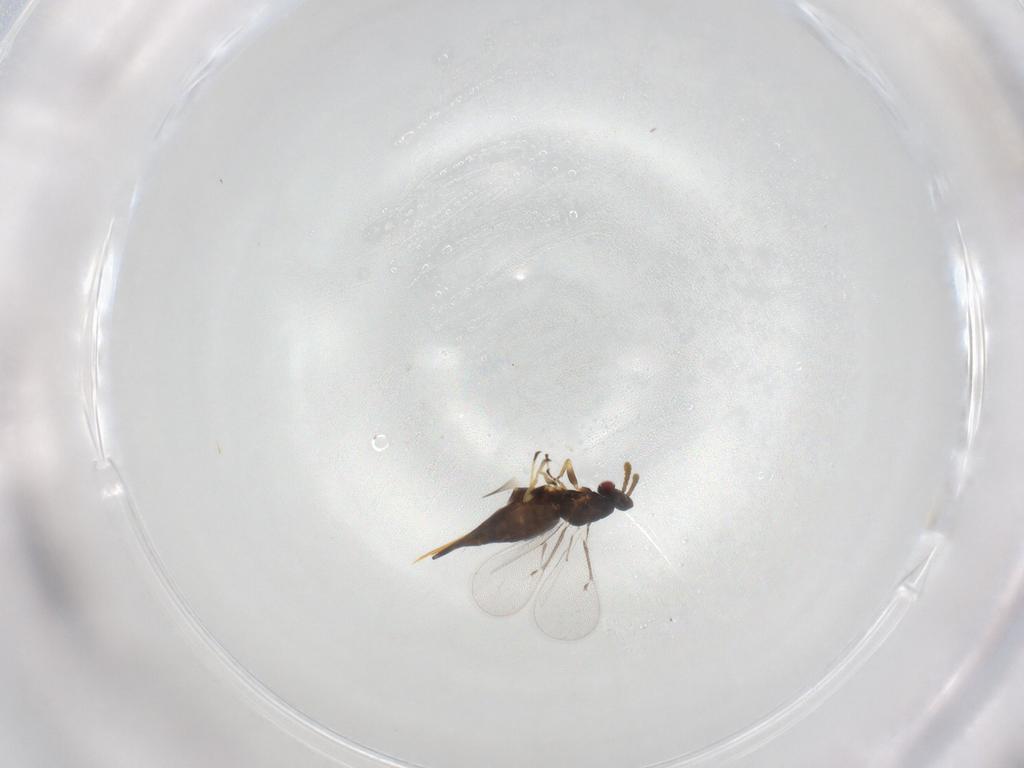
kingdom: Animalia
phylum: Arthropoda
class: Insecta
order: Hymenoptera
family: Eulophidae
